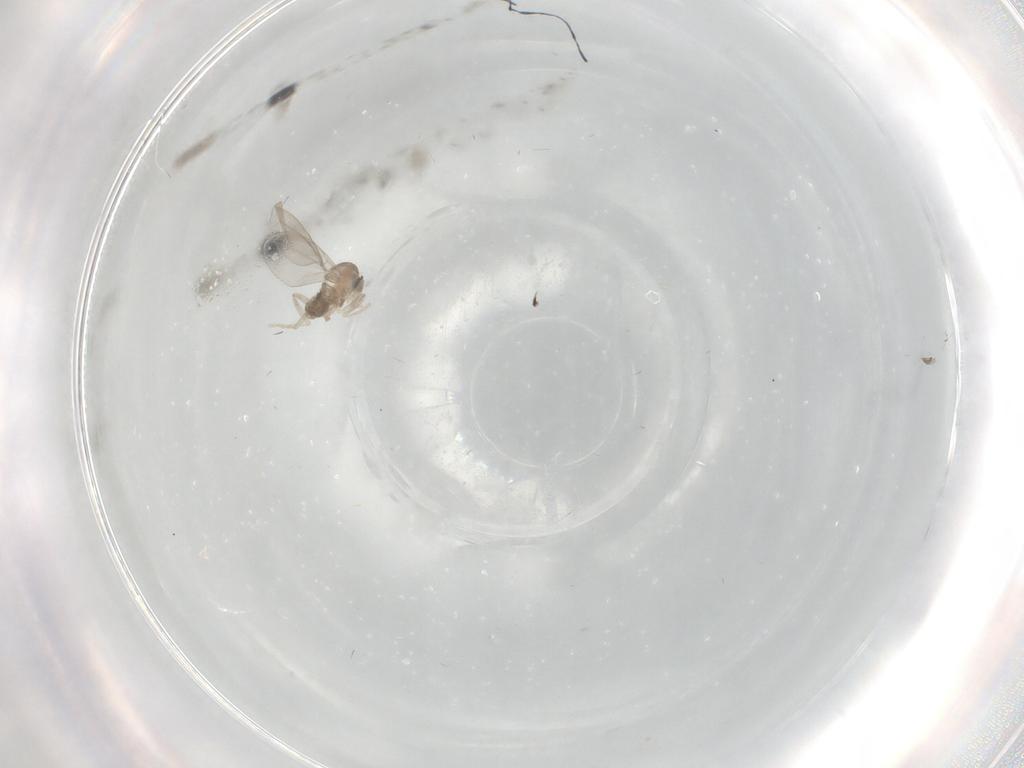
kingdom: Animalia
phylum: Arthropoda
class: Insecta
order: Diptera
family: Cecidomyiidae
